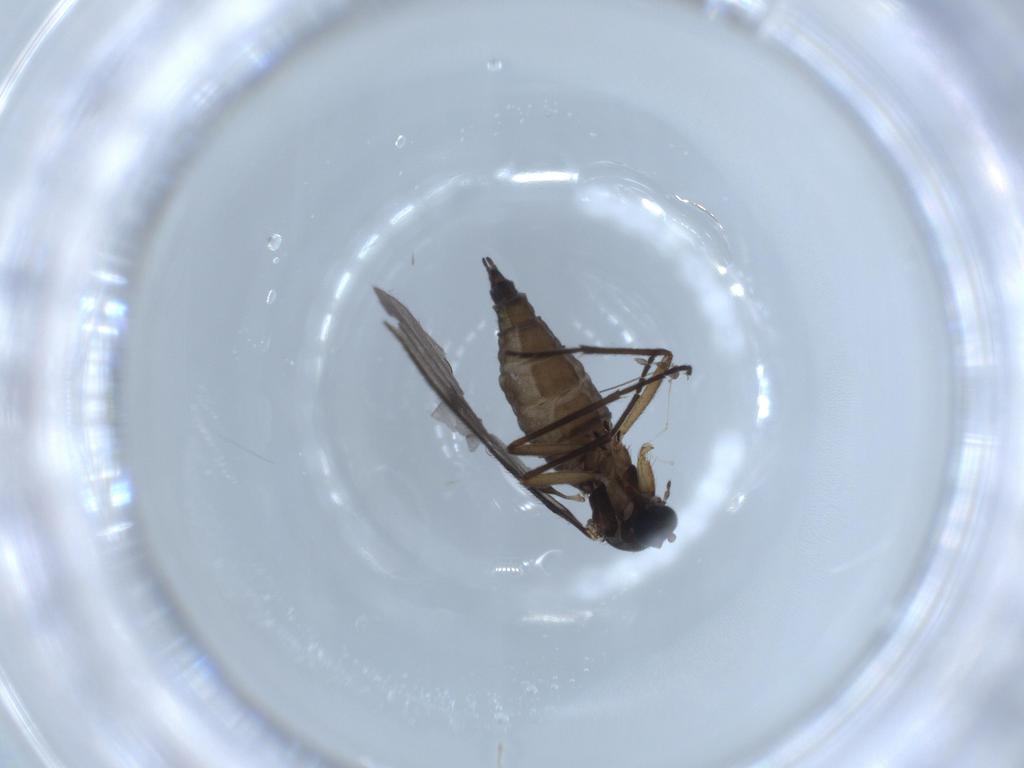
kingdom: Animalia
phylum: Arthropoda
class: Insecta
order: Diptera
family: Sciaridae
